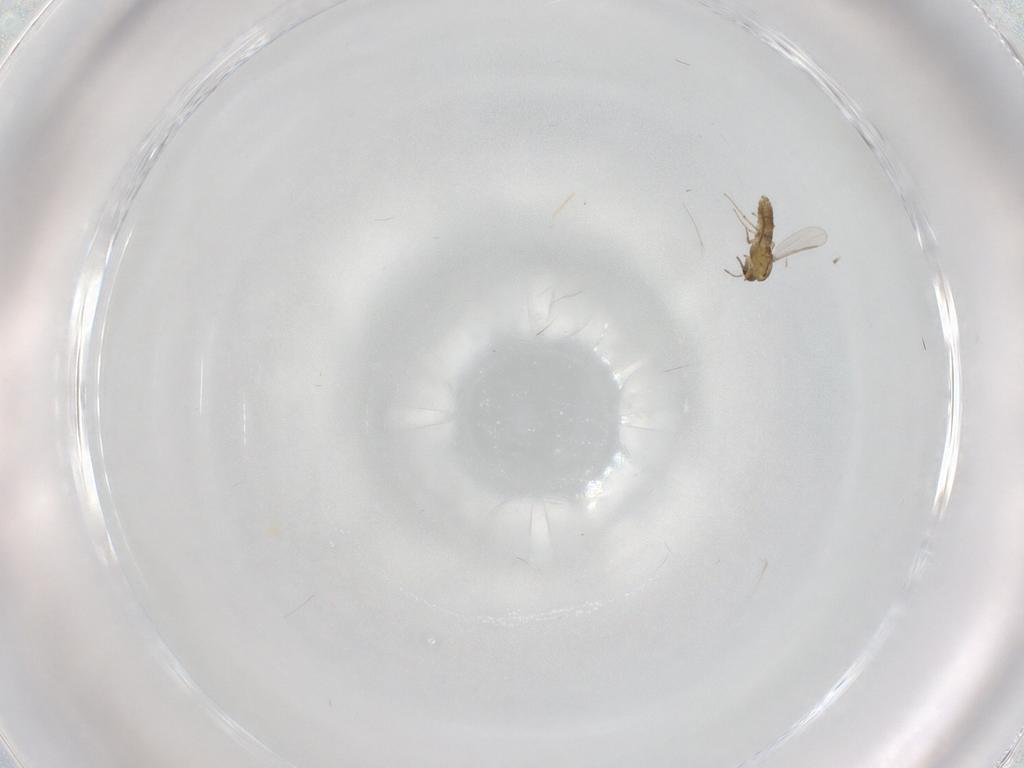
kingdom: Animalia
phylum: Arthropoda
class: Insecta
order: Diptera
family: Chironomidae
